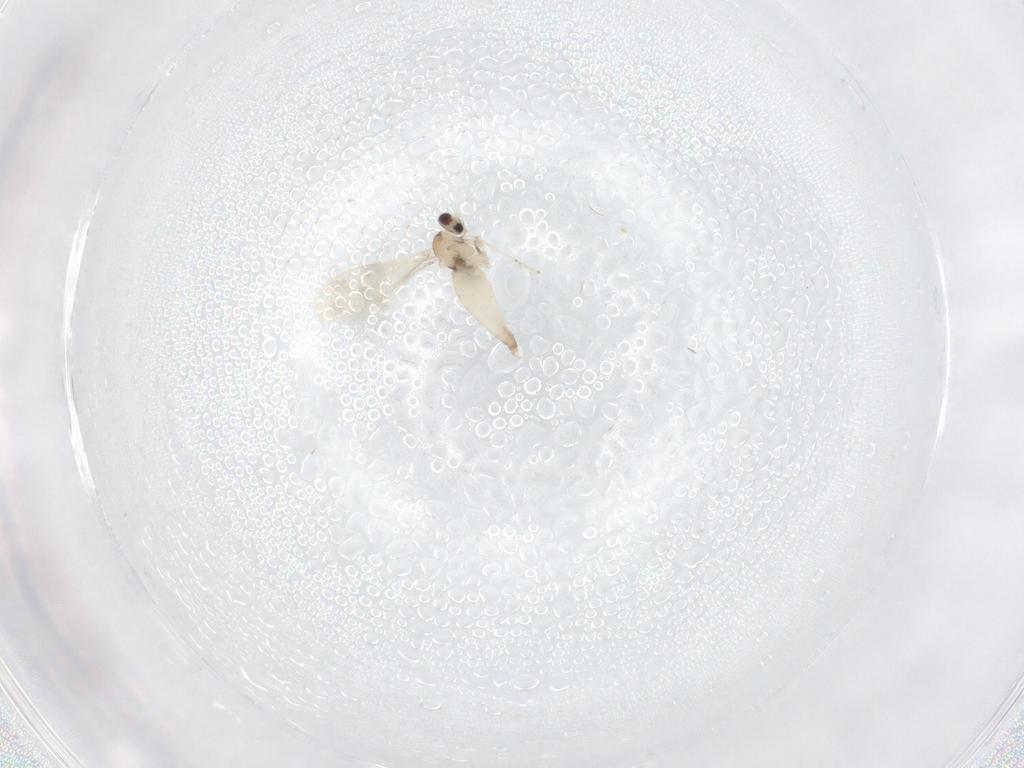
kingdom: Animalia
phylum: Arthropoda
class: Insecta
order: Diptera
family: Cecidomyiidae
